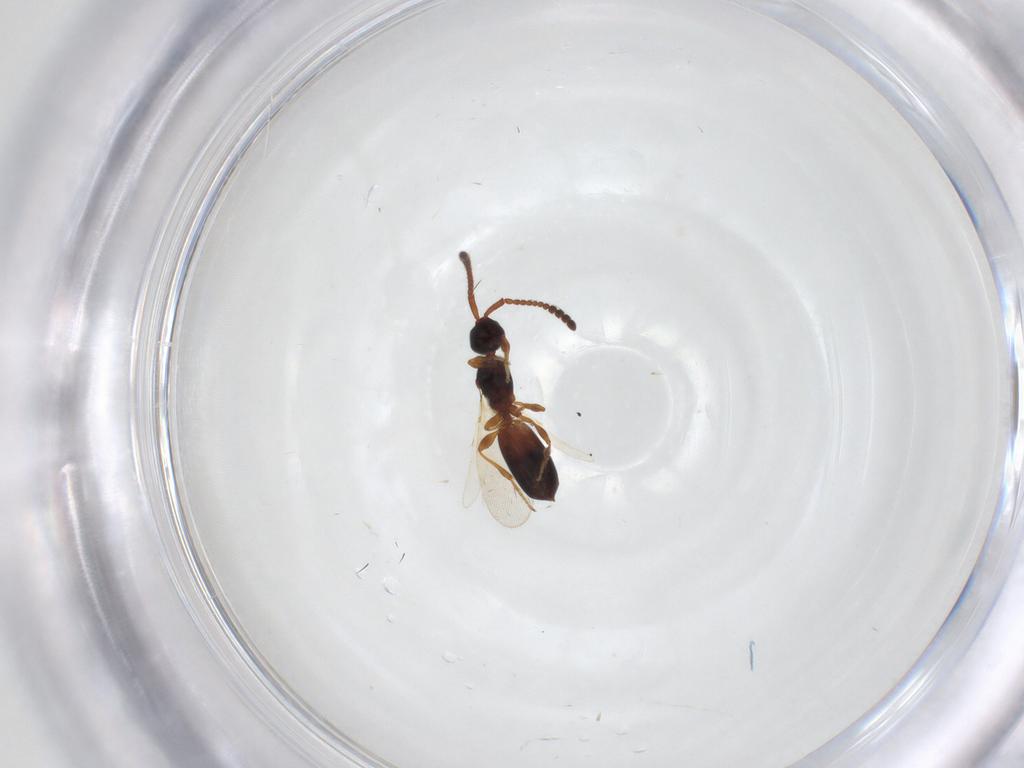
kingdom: Animalia
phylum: Arthropoda
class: Insecta
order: Hymenoptera
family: Diapriidae
